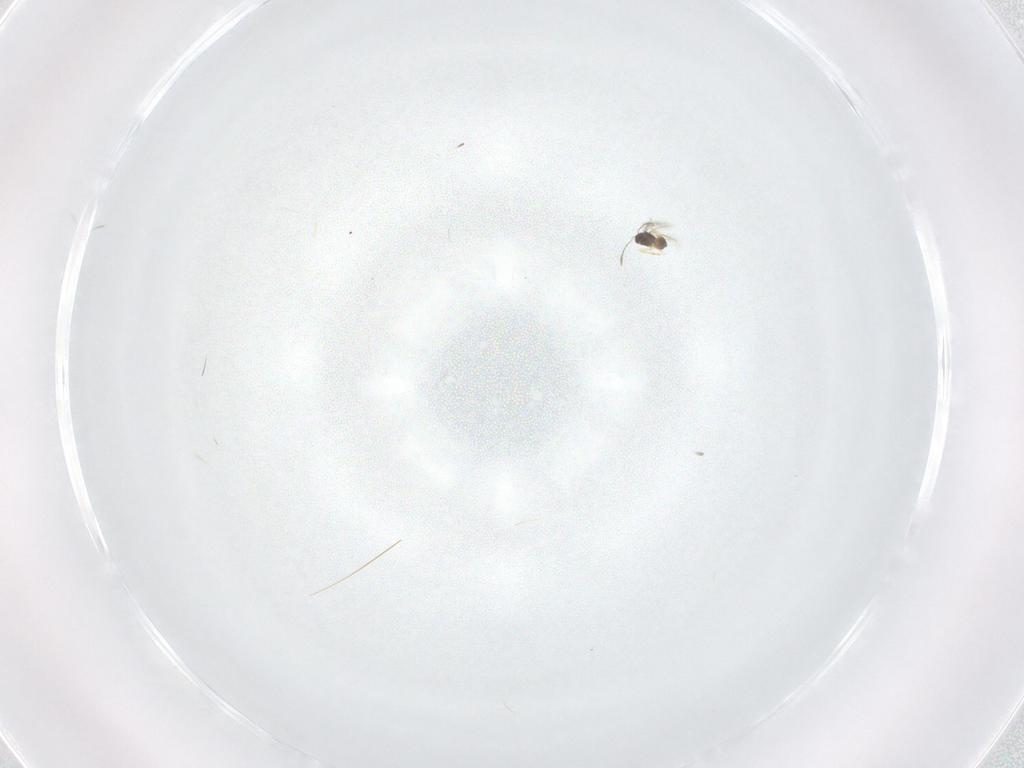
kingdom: Animalia
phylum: Arthropoda
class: Insecta
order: Hymenoptera
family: Mymaridae
